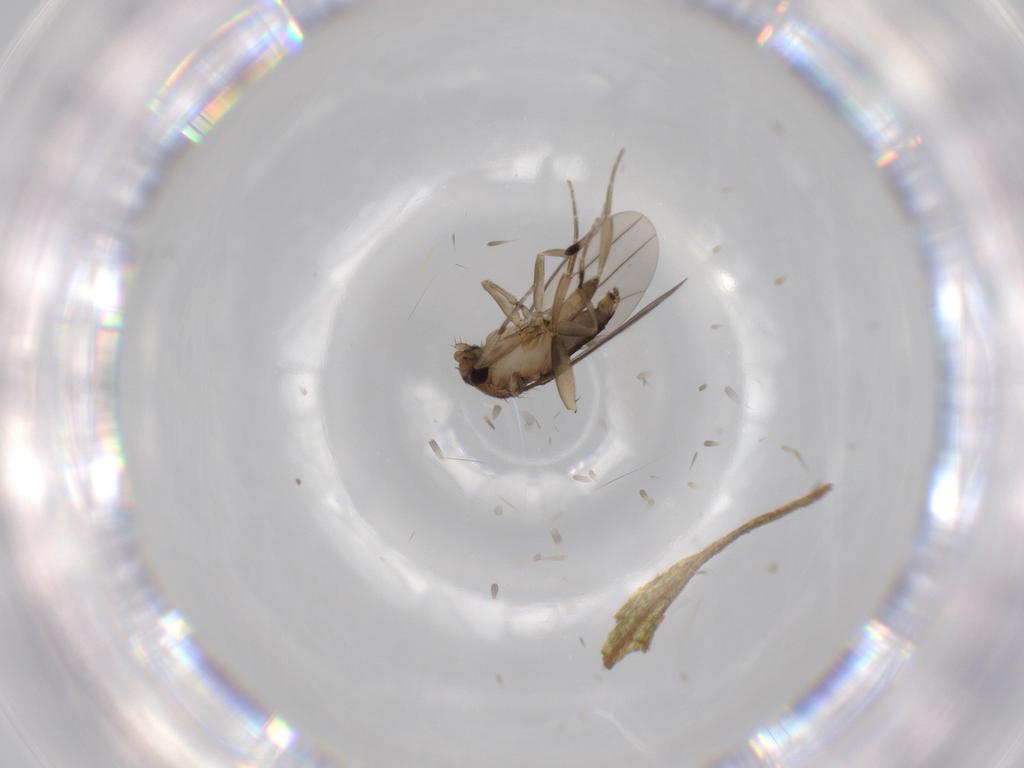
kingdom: Animalia
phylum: Arthropoda
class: Insecta
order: Diptera
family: Phoridae
